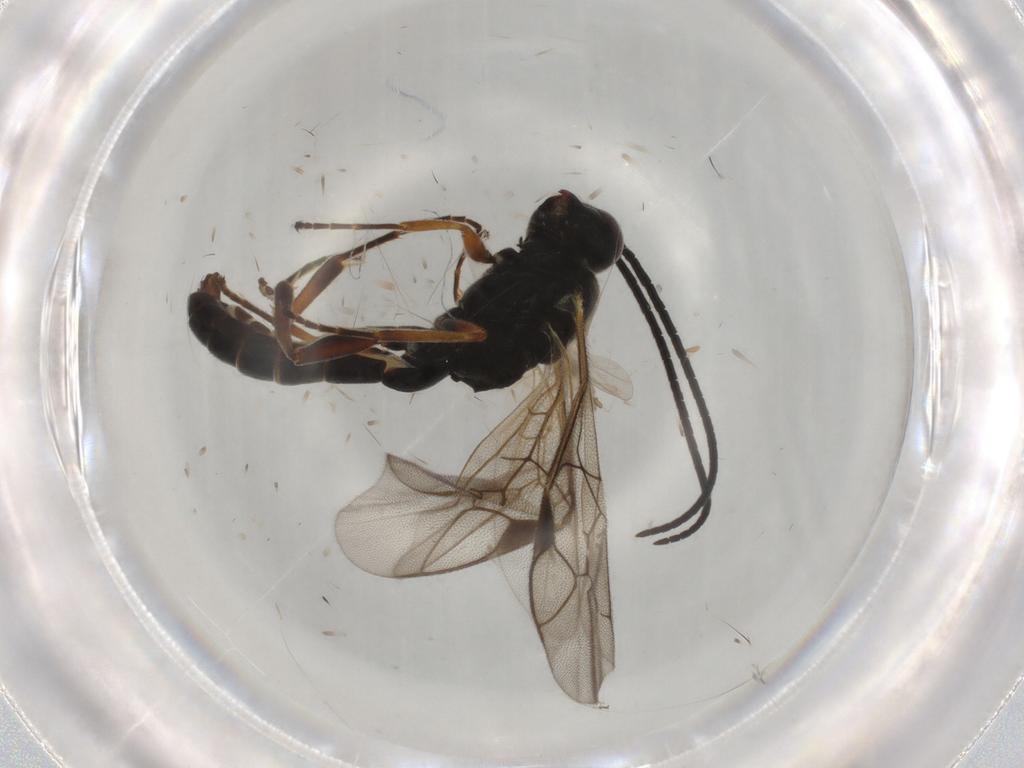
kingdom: Animalia
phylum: Arthropoda
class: Insecta
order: Hymenoptera
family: Ichneumonidae
